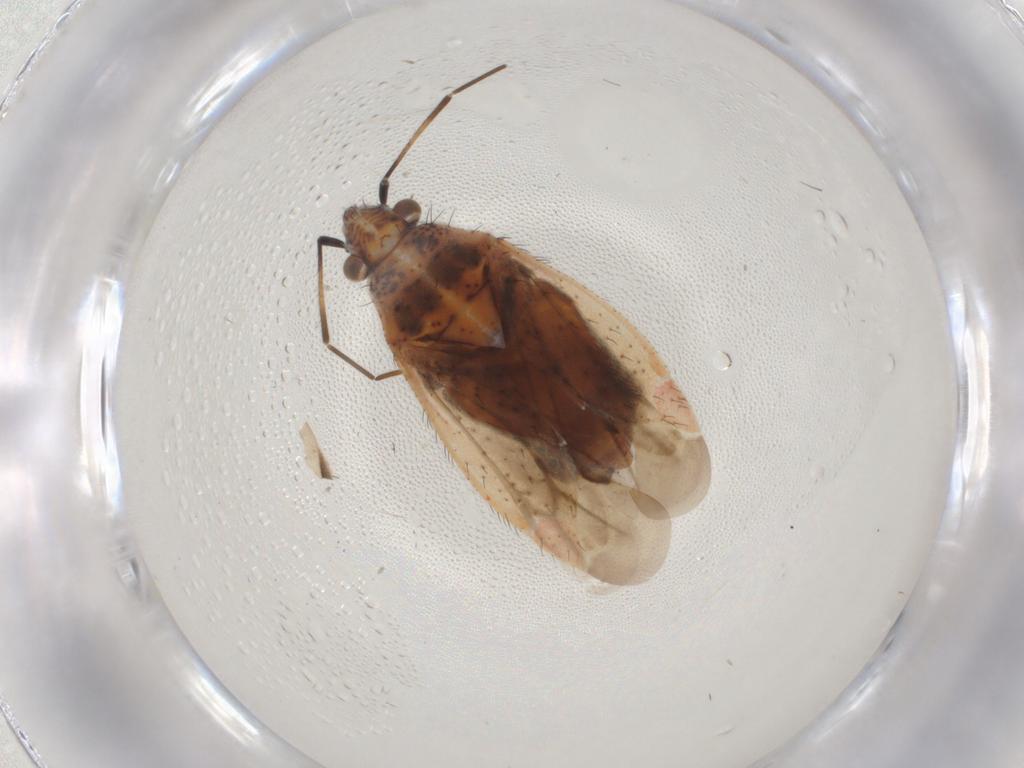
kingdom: Animalia
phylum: Arthropoda
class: Insecta
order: Hemiptera
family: Miridae
